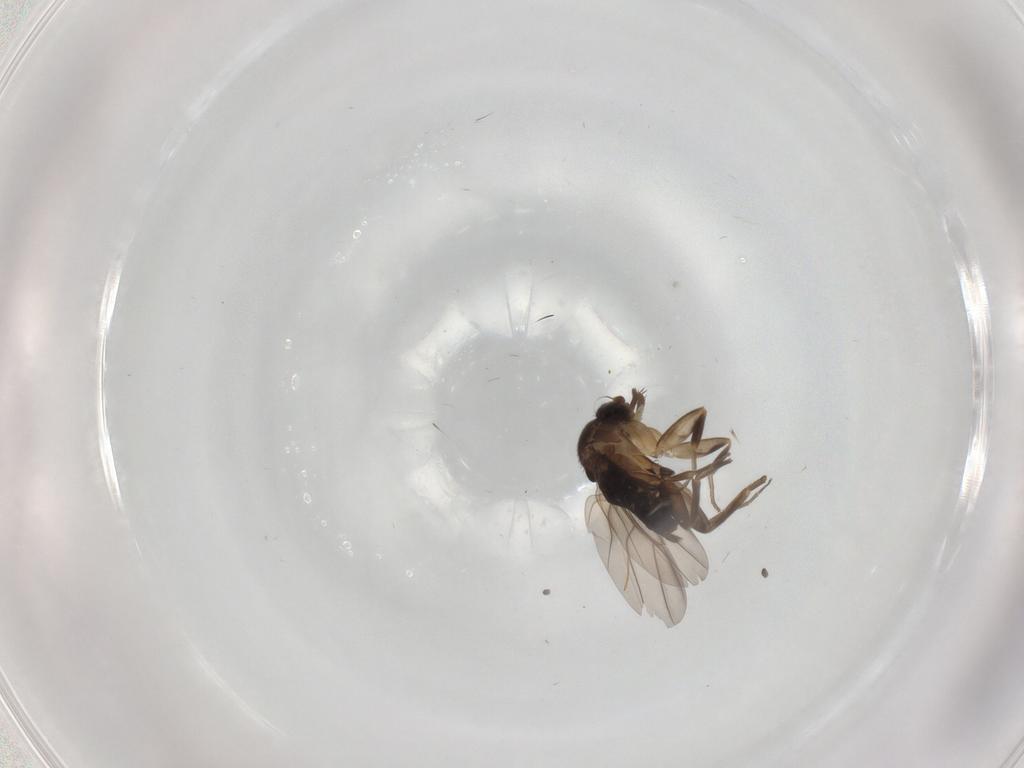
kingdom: Animalia
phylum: Arthropoda
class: Insecta
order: Diptera
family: Phoridae
